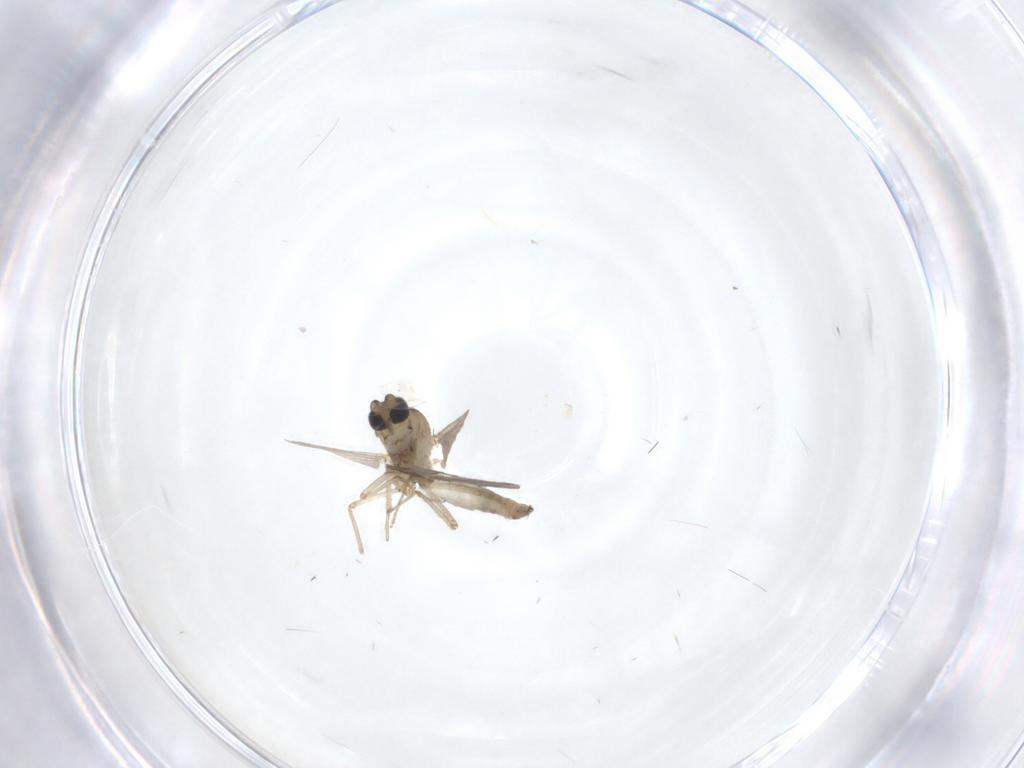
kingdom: Animalia
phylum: Arthropoda
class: Insecta
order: Diptera
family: Ceratopogonidae
